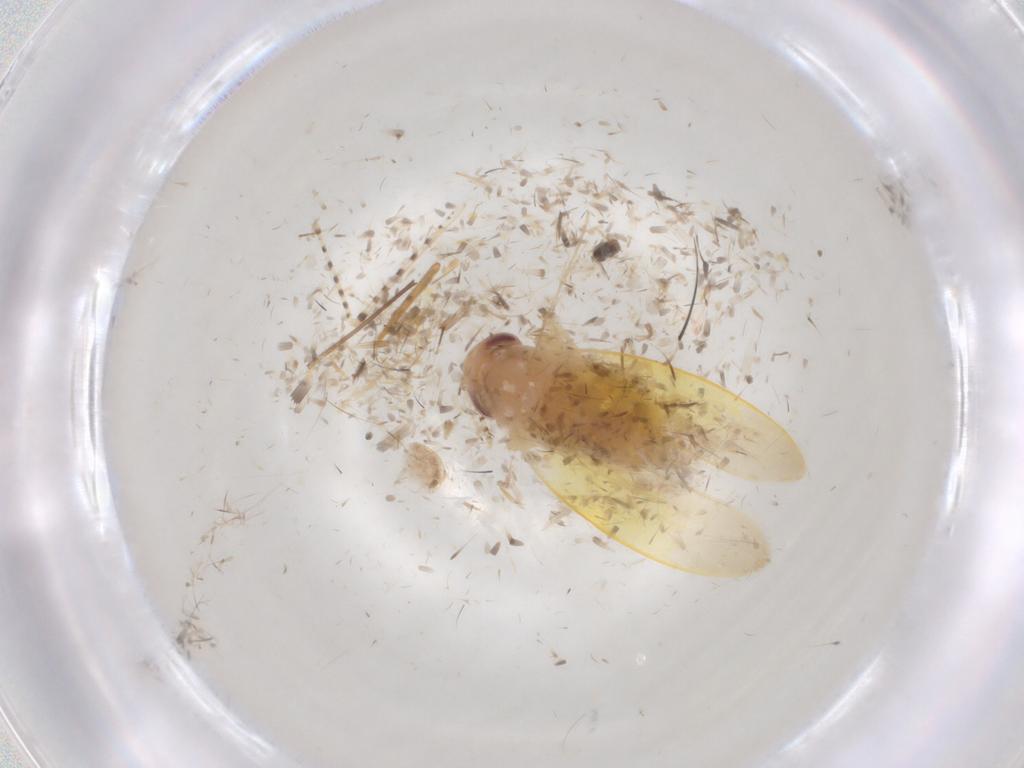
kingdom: Animalia
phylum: Arthropoda
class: Insecta
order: Hemiptera
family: Cicadellidae
